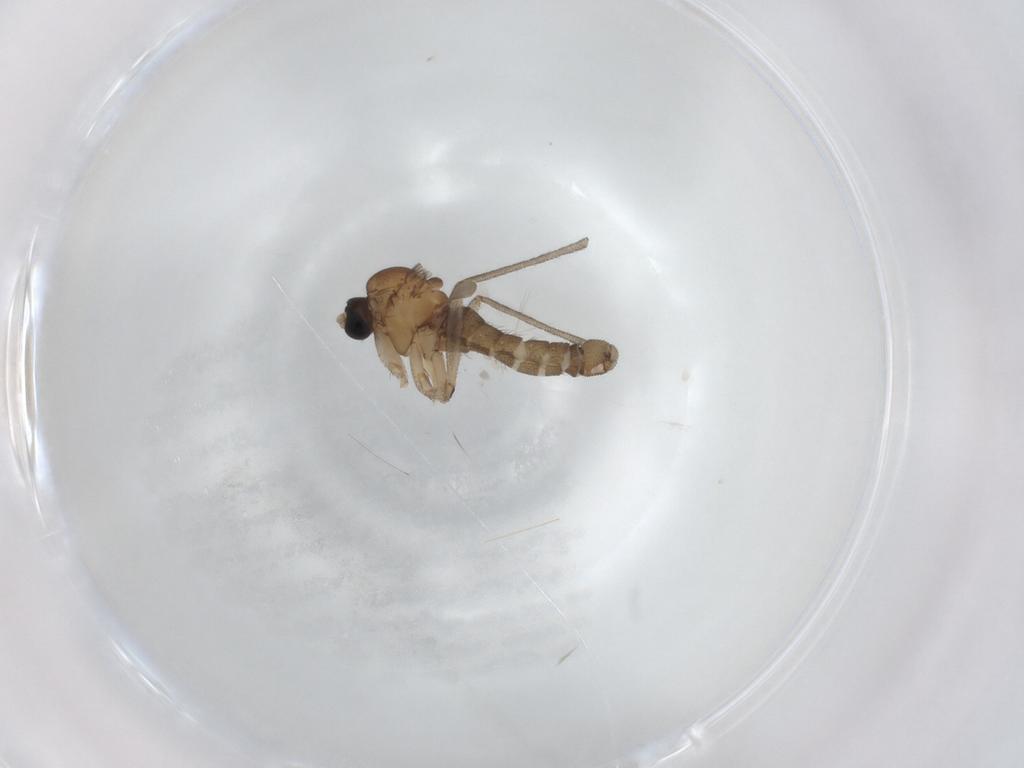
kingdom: Animalia
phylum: Arthropoda
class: Insecta
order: Diptera
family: Sciaridae
